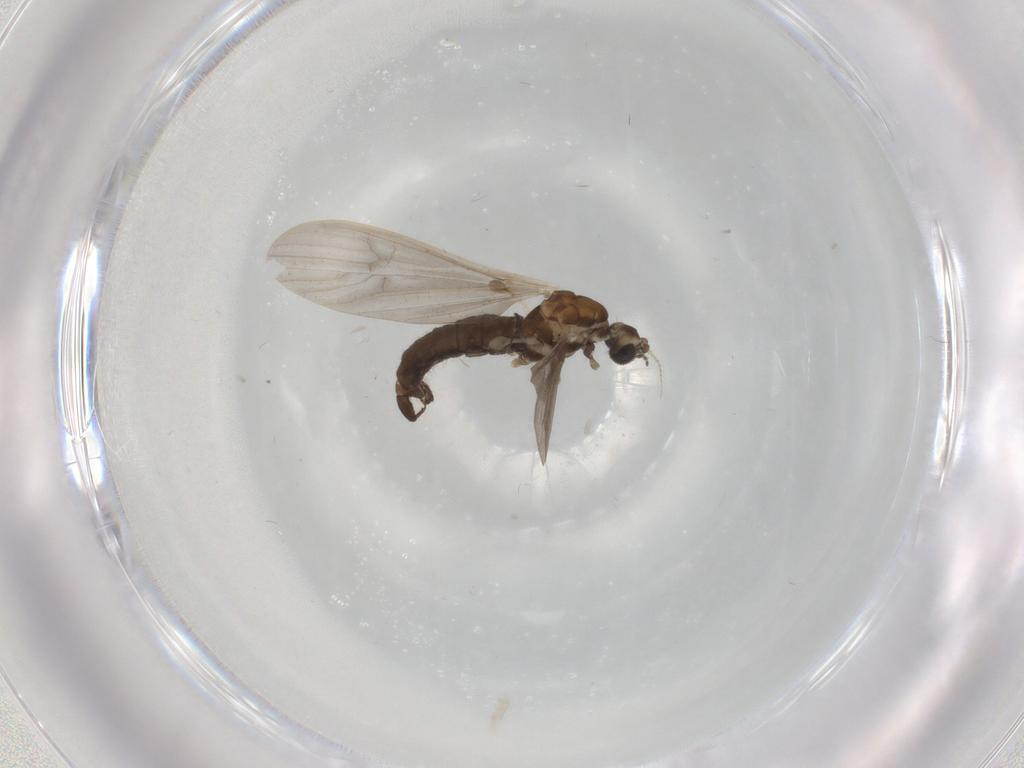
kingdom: Animalia
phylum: Arthropoda
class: Insecta
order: Diptera
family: Limoniidae
